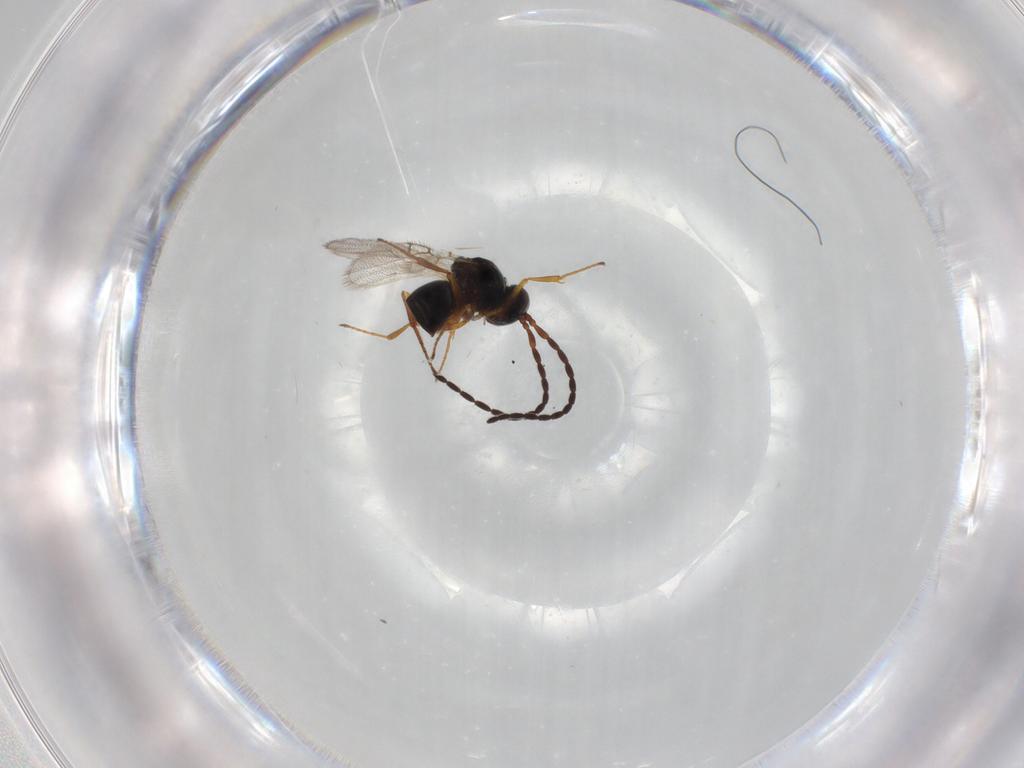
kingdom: Animalia
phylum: Arthropoda
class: Insecta
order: Hymenoptera
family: Figitidae
